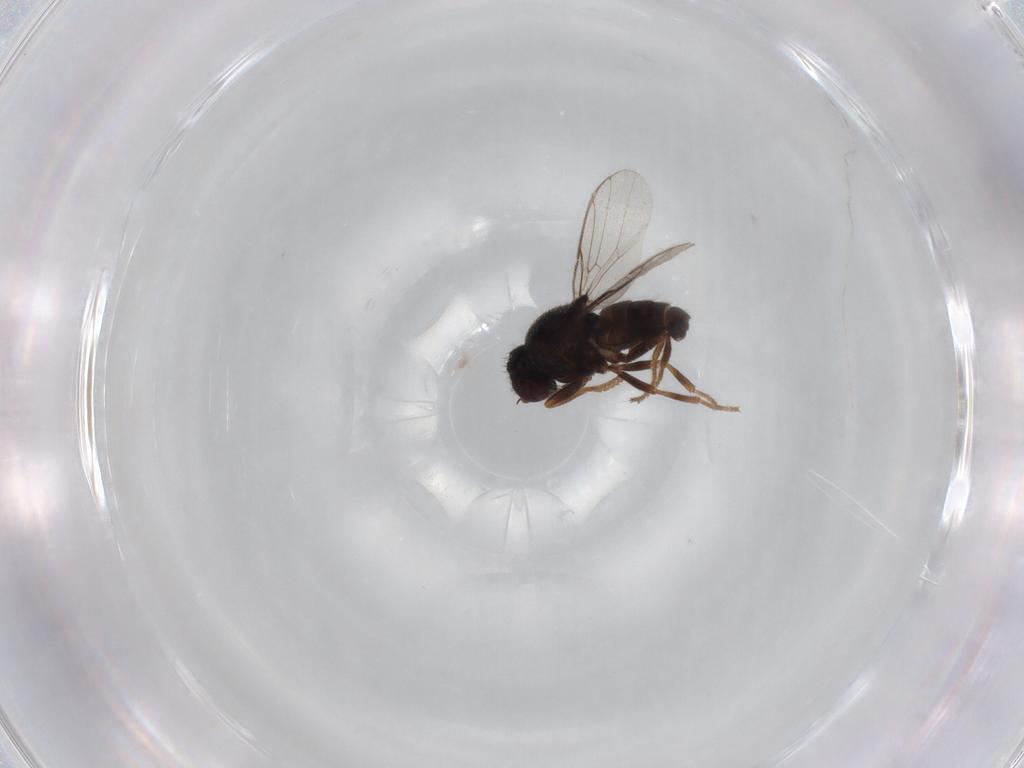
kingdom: Animalia
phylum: Arthropoda
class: Insecta
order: Diptera
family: Chloropidae
